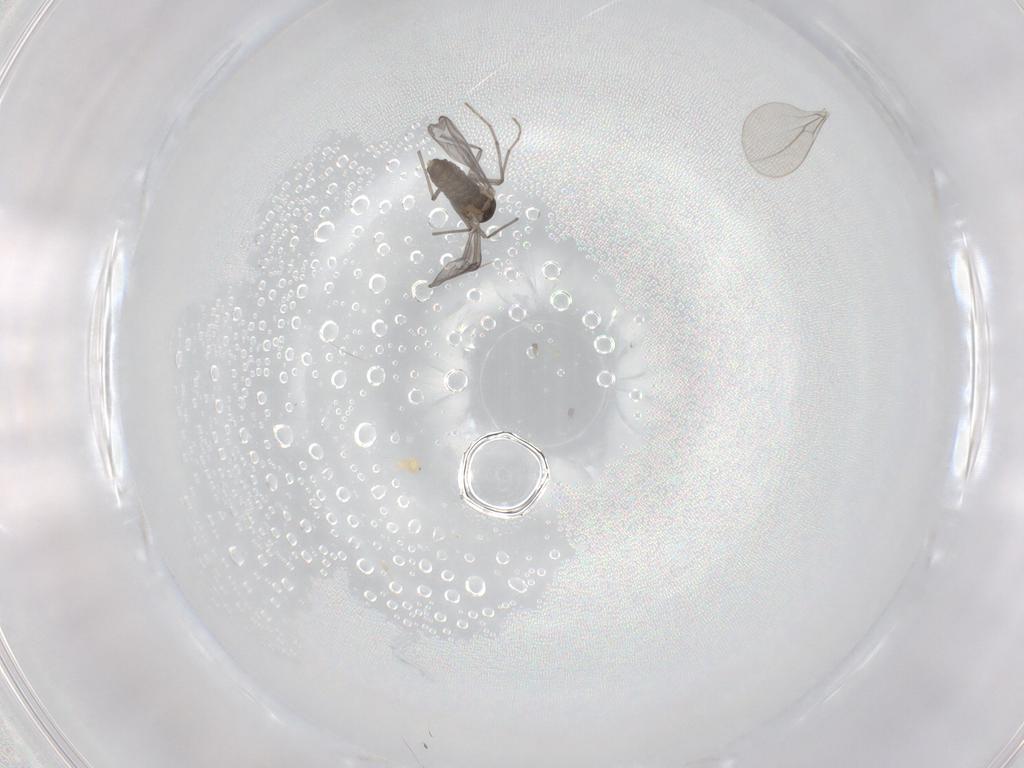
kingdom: Animalia
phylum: Arthropoda
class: Insecta
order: Diptera
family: Chironomidae
